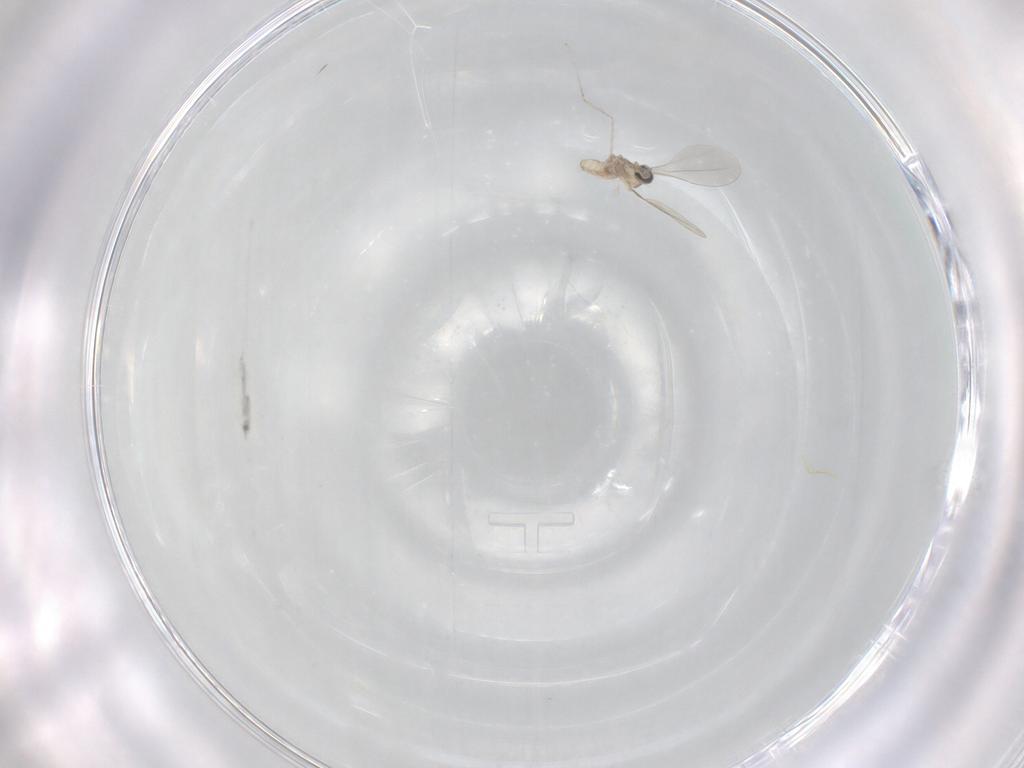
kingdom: Animalia
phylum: Arthropoda
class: Insecta
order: Diptera
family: Cecidomyiidae
